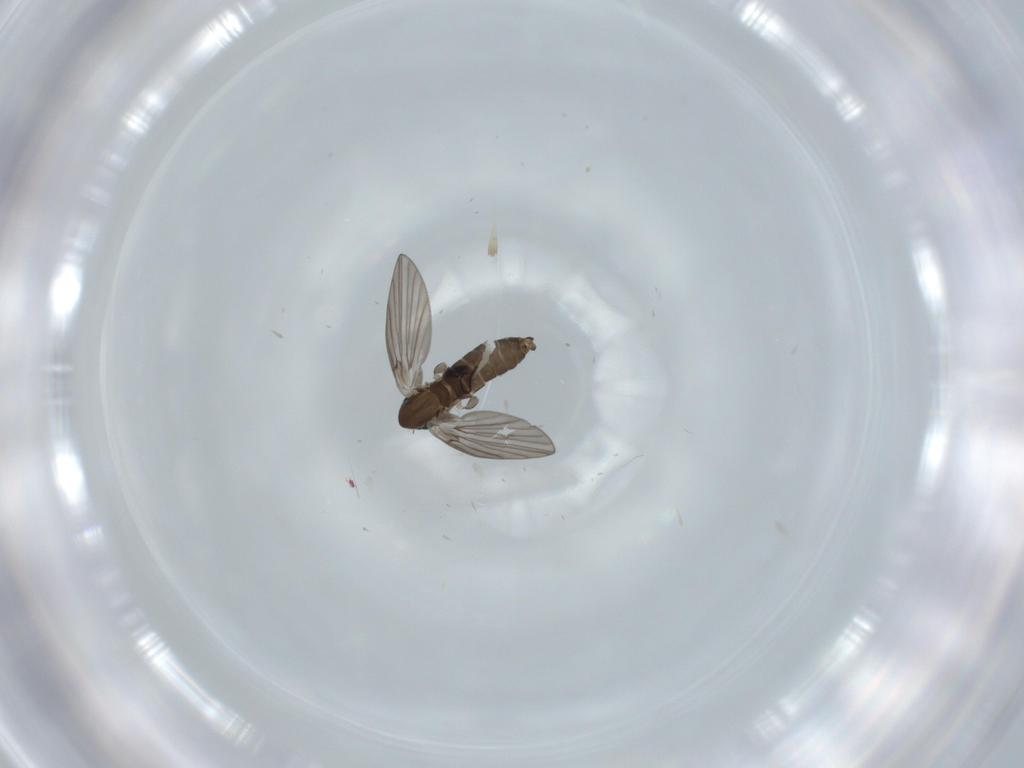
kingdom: Animalia
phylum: Arthropoda
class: Insecta
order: Diptera
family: Psychodidae
